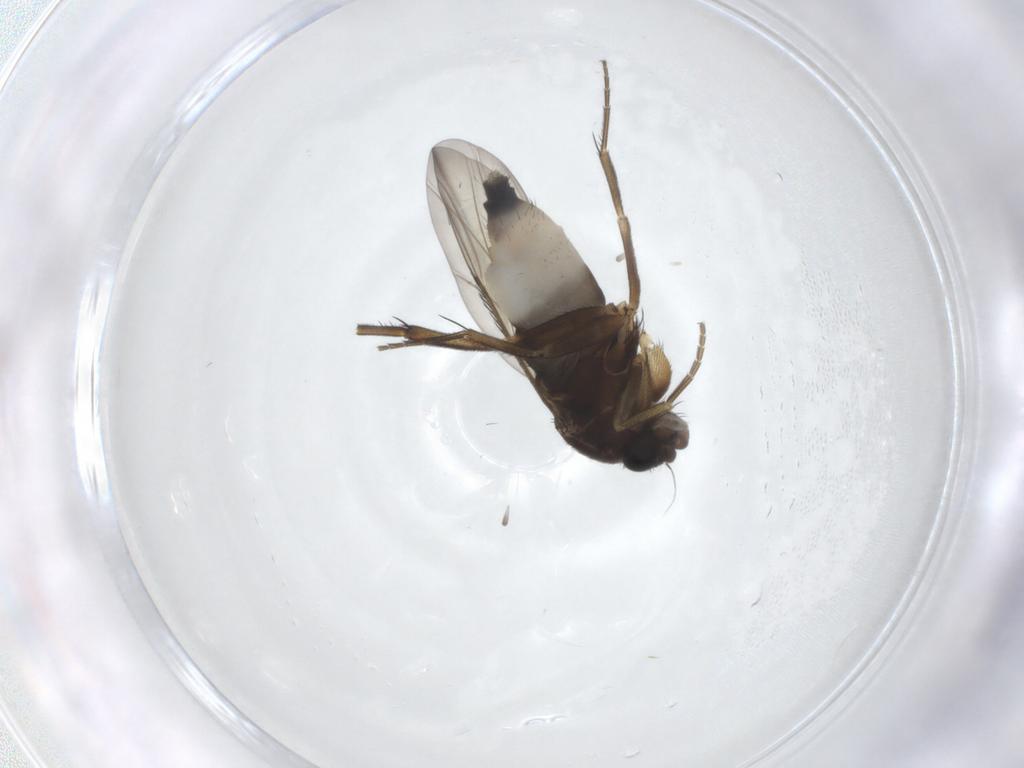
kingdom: Animalia
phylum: Arthropoda
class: Insecta
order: Diptera
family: Phoridae
